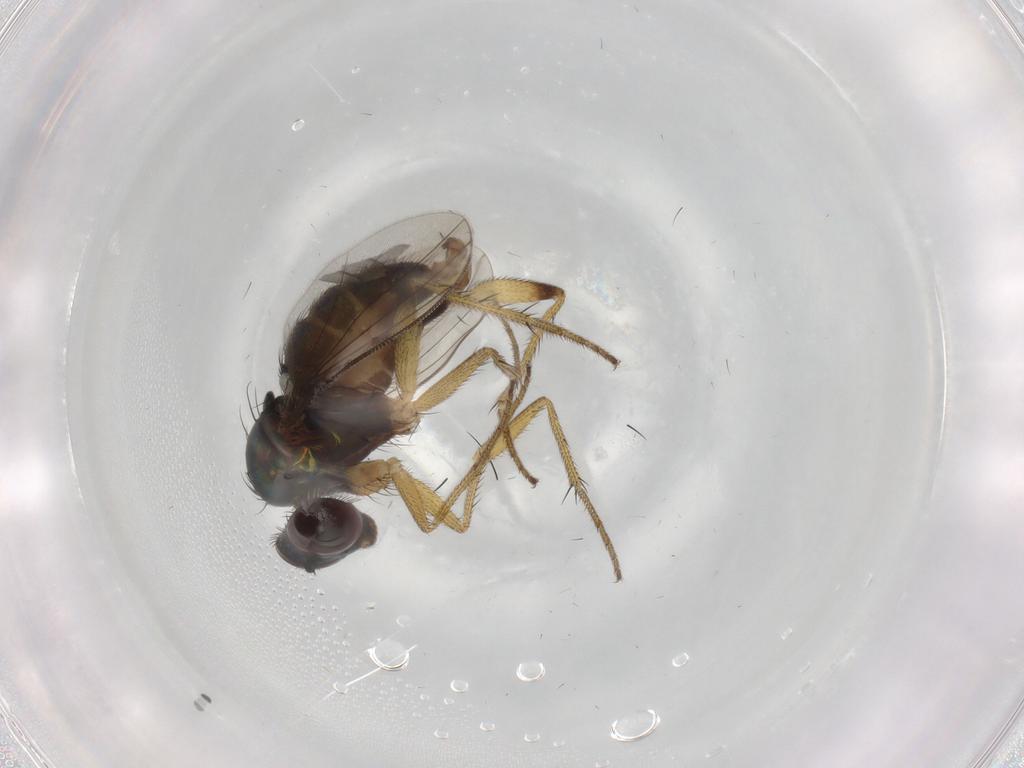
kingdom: Animalia
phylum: Arthropoda
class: Insecta
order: Diptera
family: Dolichopodidae
